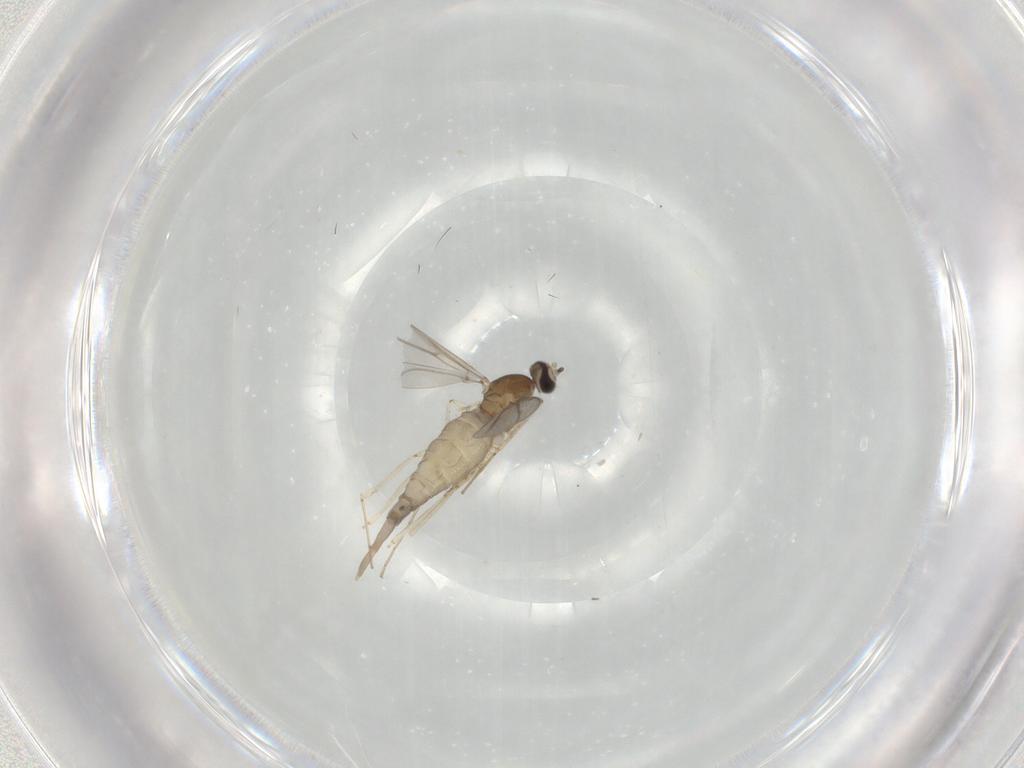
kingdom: Animalia
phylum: Arthropoda
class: Insecta
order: Diptera
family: Cecidomyiidae
